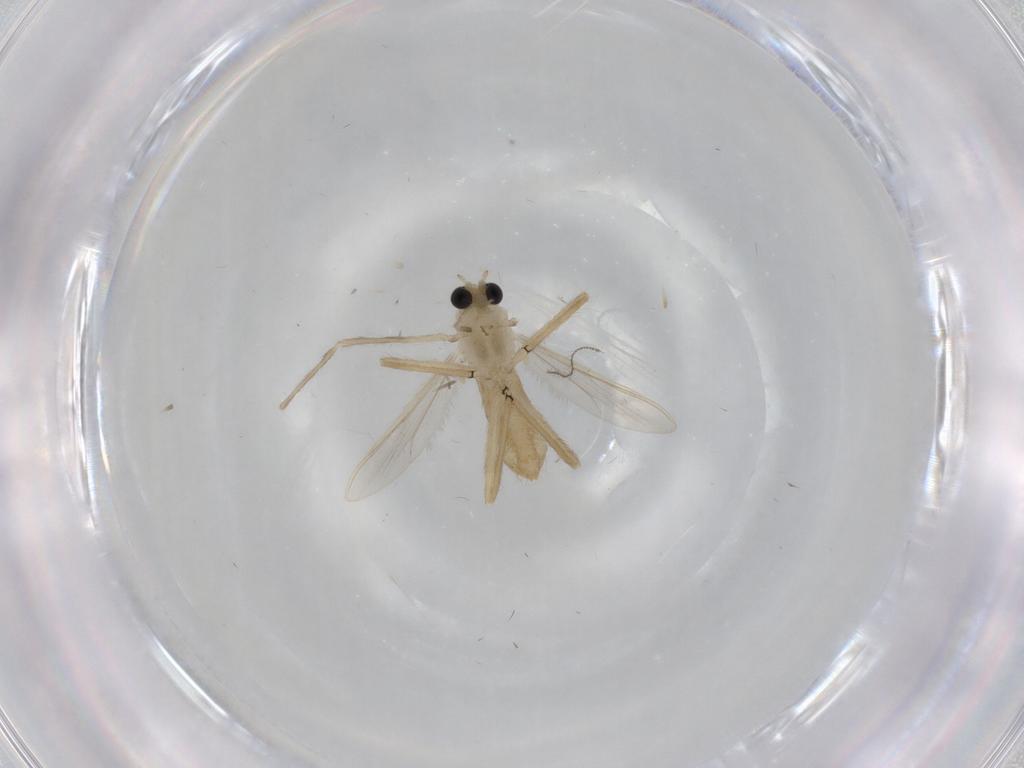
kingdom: Animalia
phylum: Arthropoda
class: Insecta
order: Diptera
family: Chironomidae
